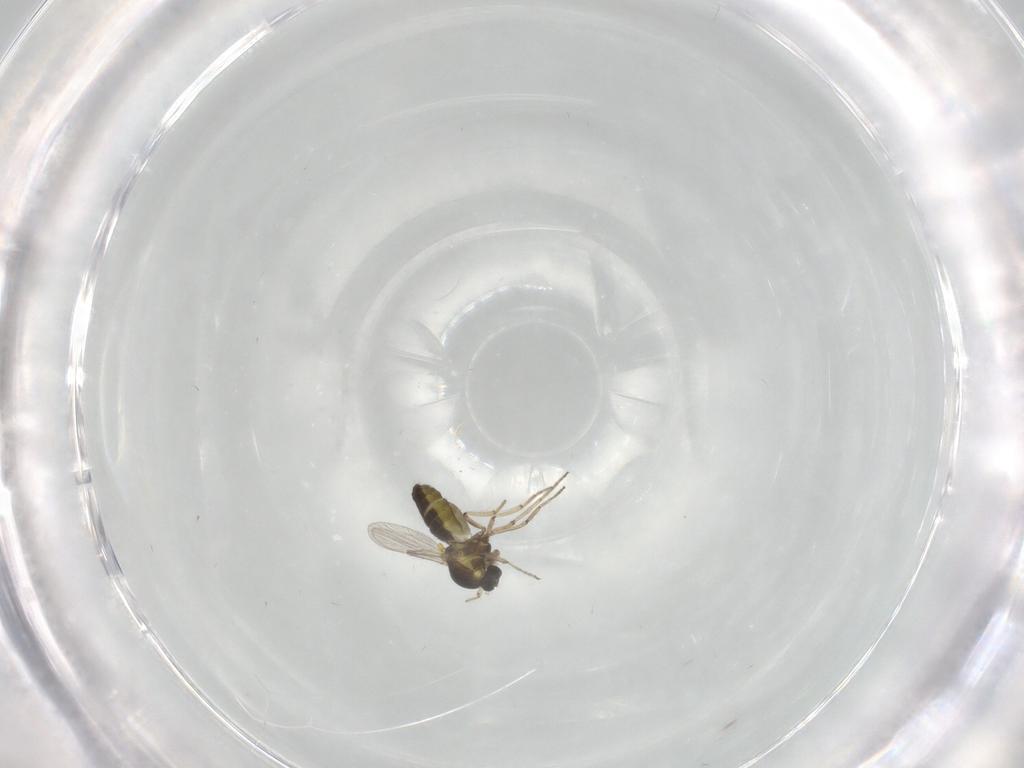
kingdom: Animalia
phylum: Arthropoda
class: Insecta
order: Diptera
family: Ceratopogonidae
